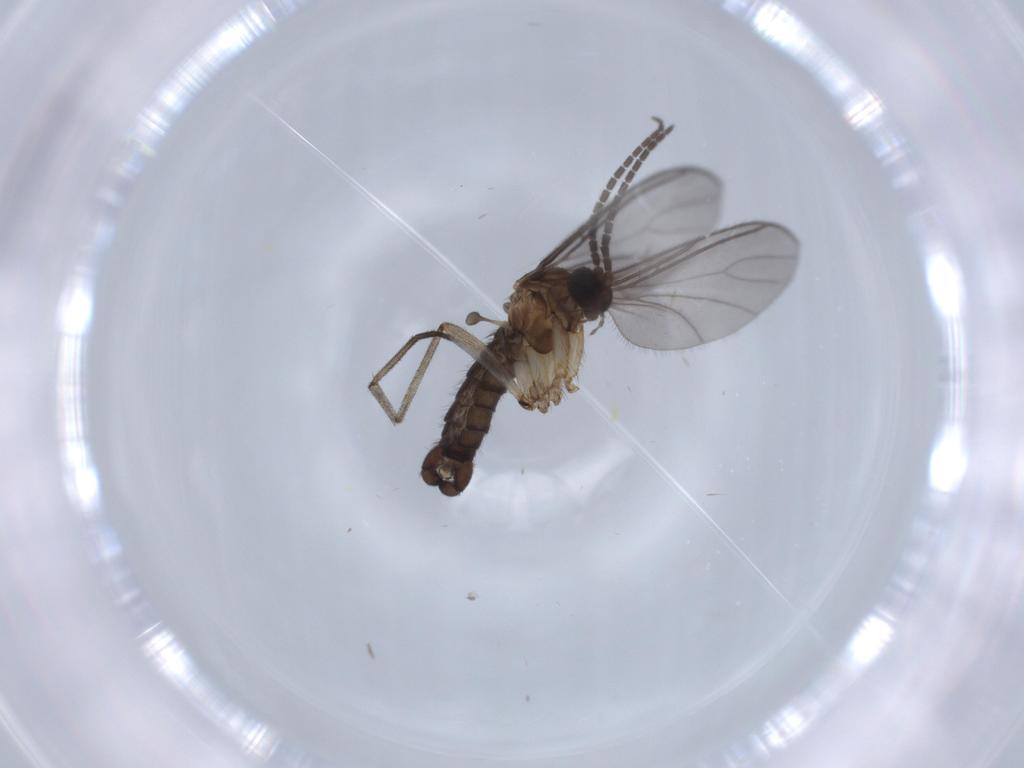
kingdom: Animalia
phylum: Arthropoda
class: Insecta
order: Diptera
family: Sciaridae
